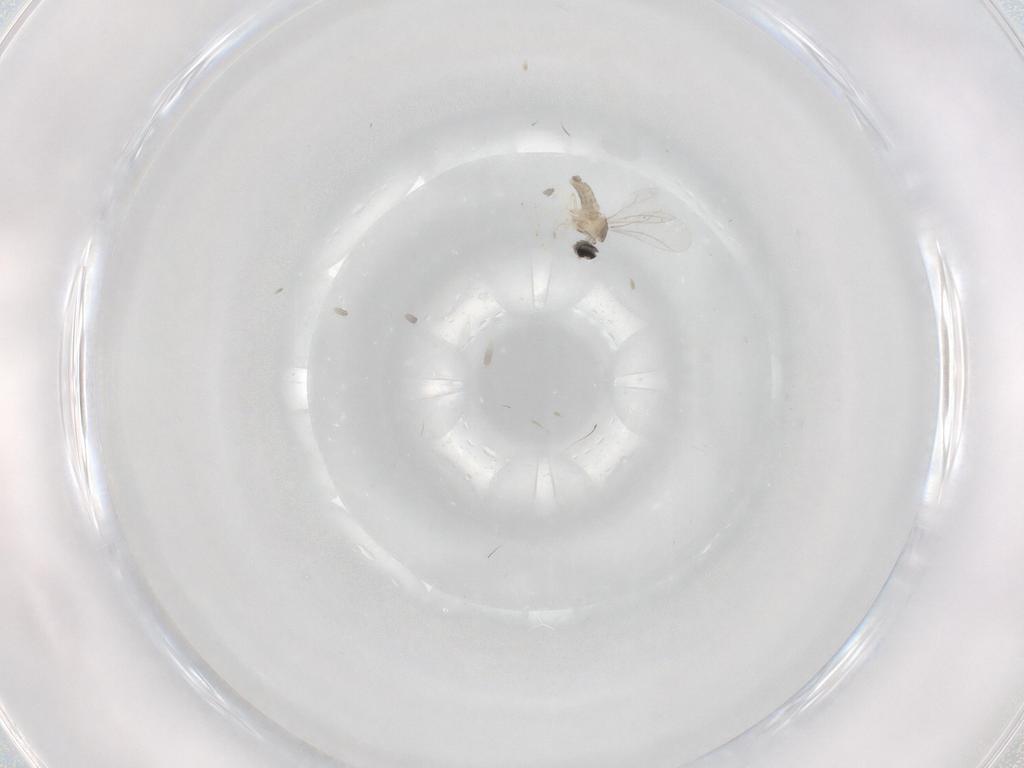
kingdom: Animalia
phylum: Arthropoda
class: Insecta
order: Diptera
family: Cecidomyiidae
